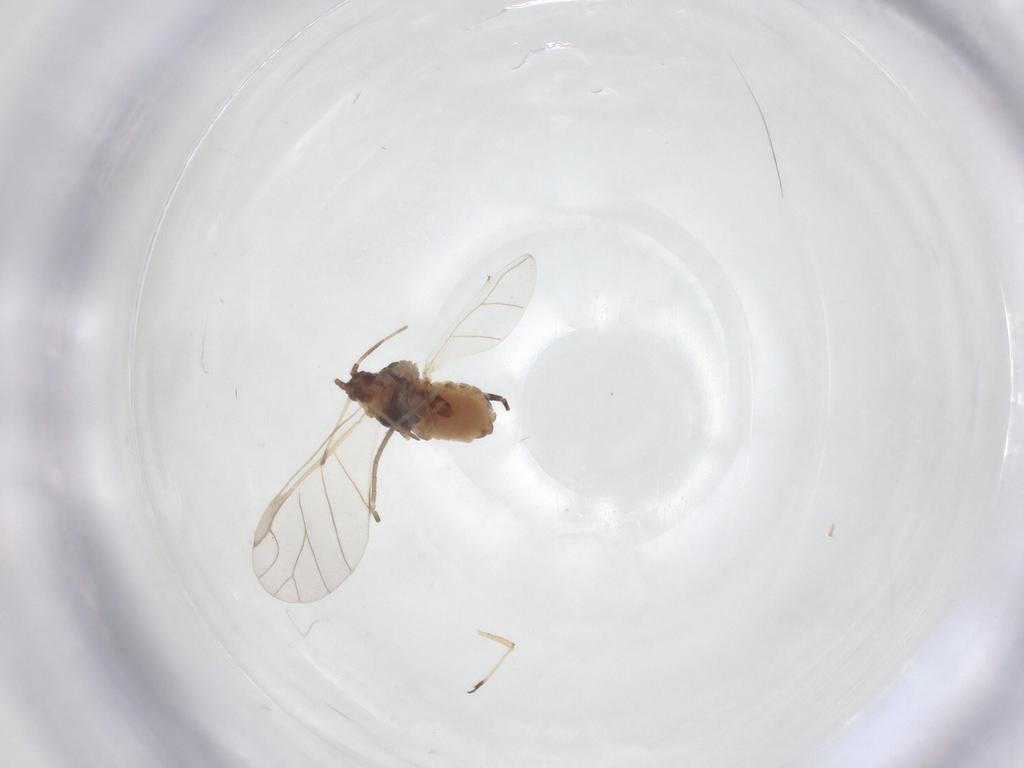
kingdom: Animalia
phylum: Arthropoda
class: Insecta
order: Hemiptera
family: Aphididae
